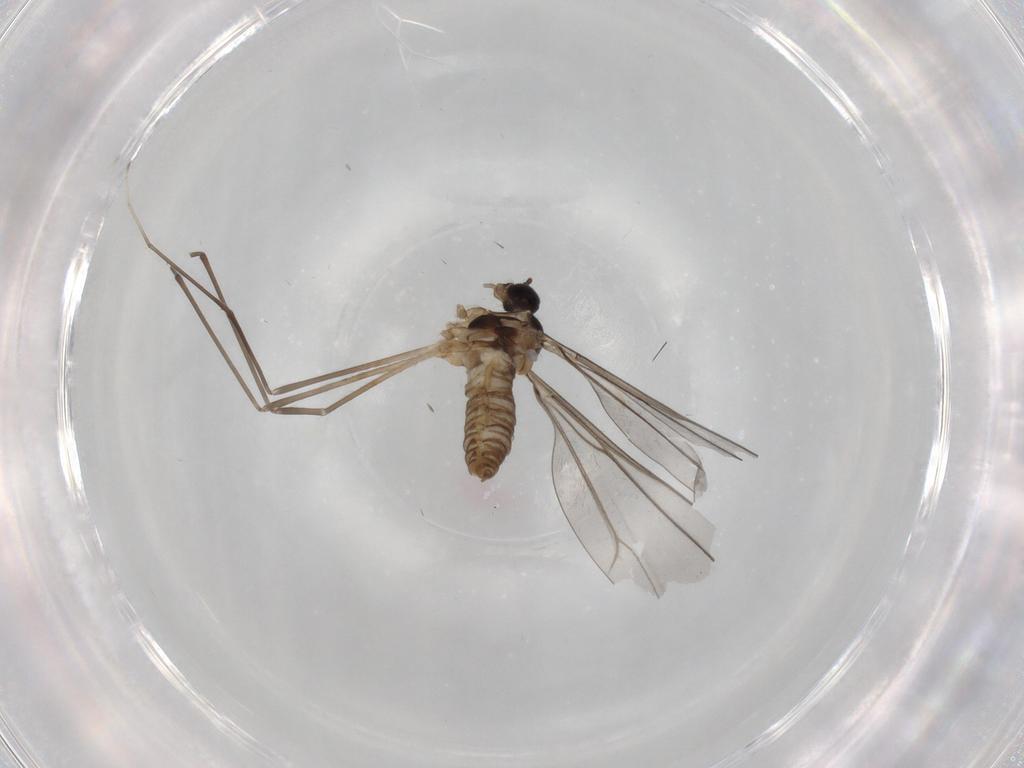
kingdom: Animalia
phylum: Arthropoda
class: Insecta
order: Diptera
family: Cecidomyiidae
